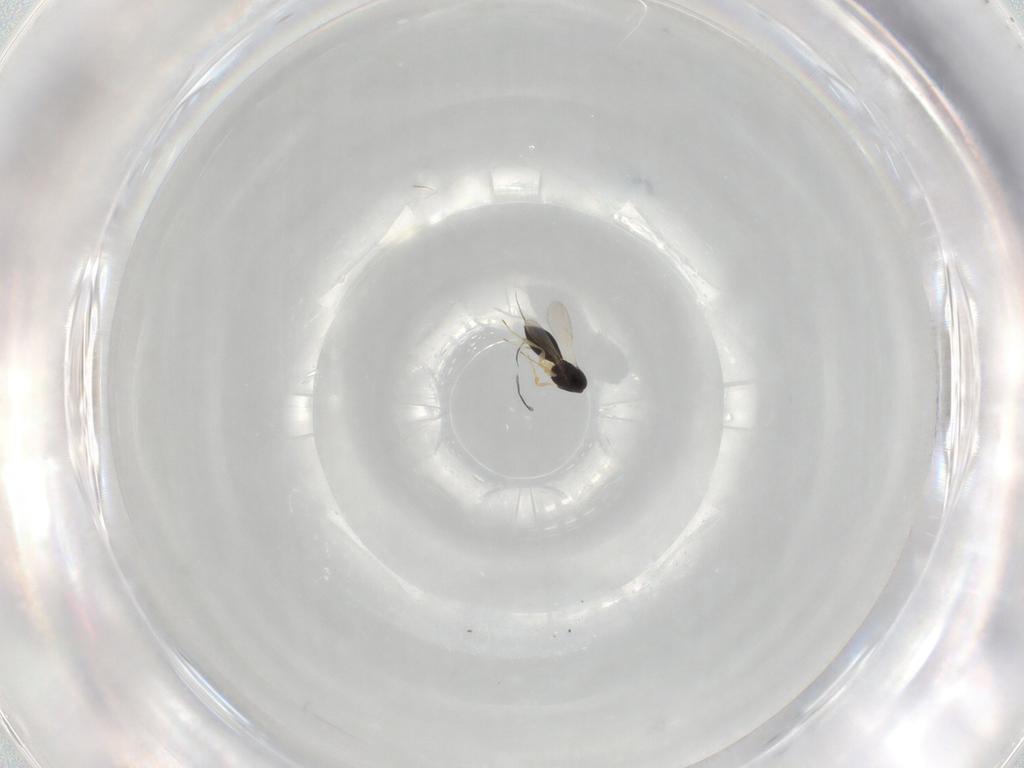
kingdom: Animalia
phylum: Arthropoda
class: Insecta
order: Hymenoptera
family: Scelionidae
